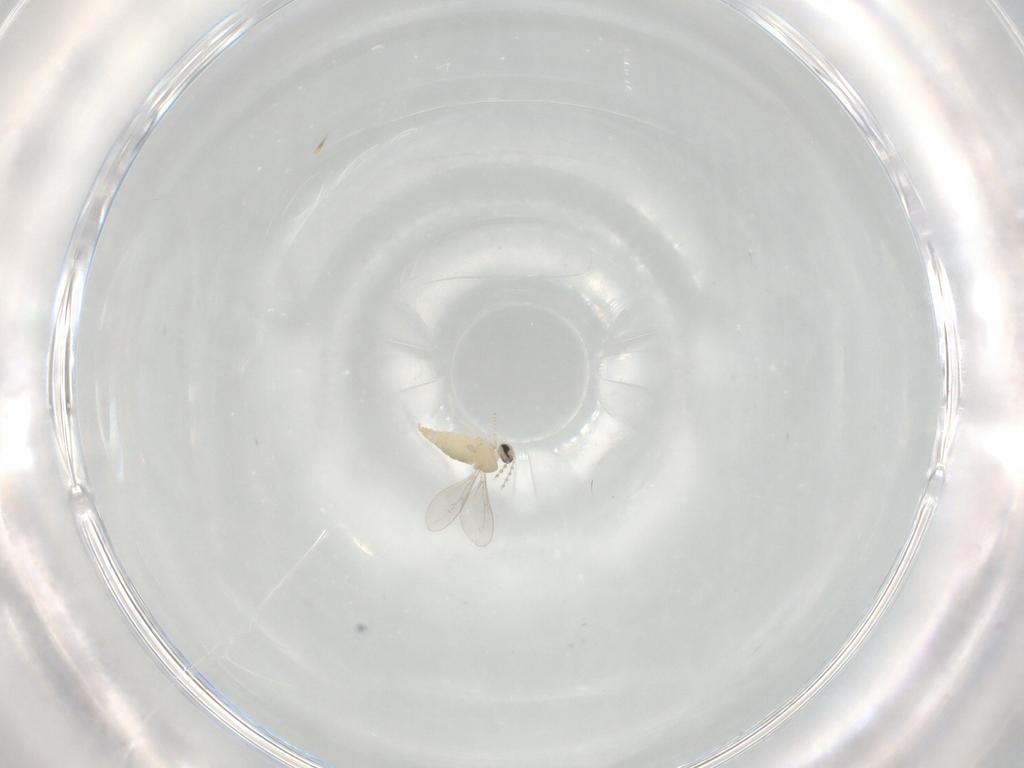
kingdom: Animalia
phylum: Arthropoda
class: Insecta
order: Diptera
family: Cecidomyiidae
